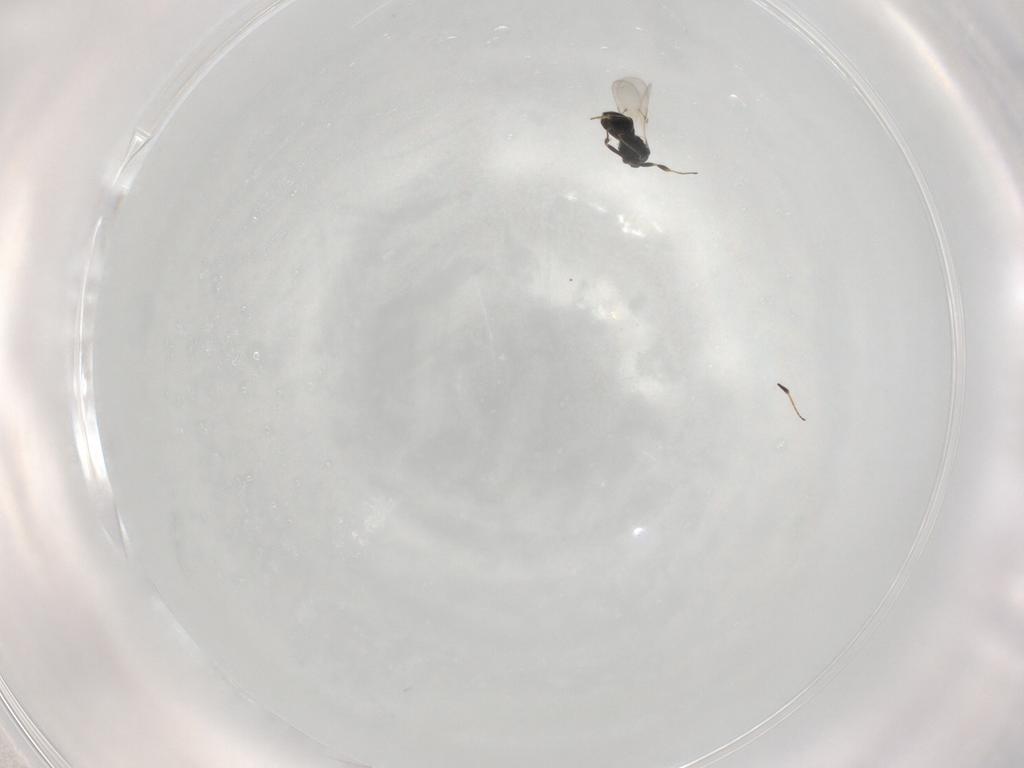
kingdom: Animalia
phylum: Arthropoda
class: Insecta
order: Hymenoptera
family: Scelionidae
